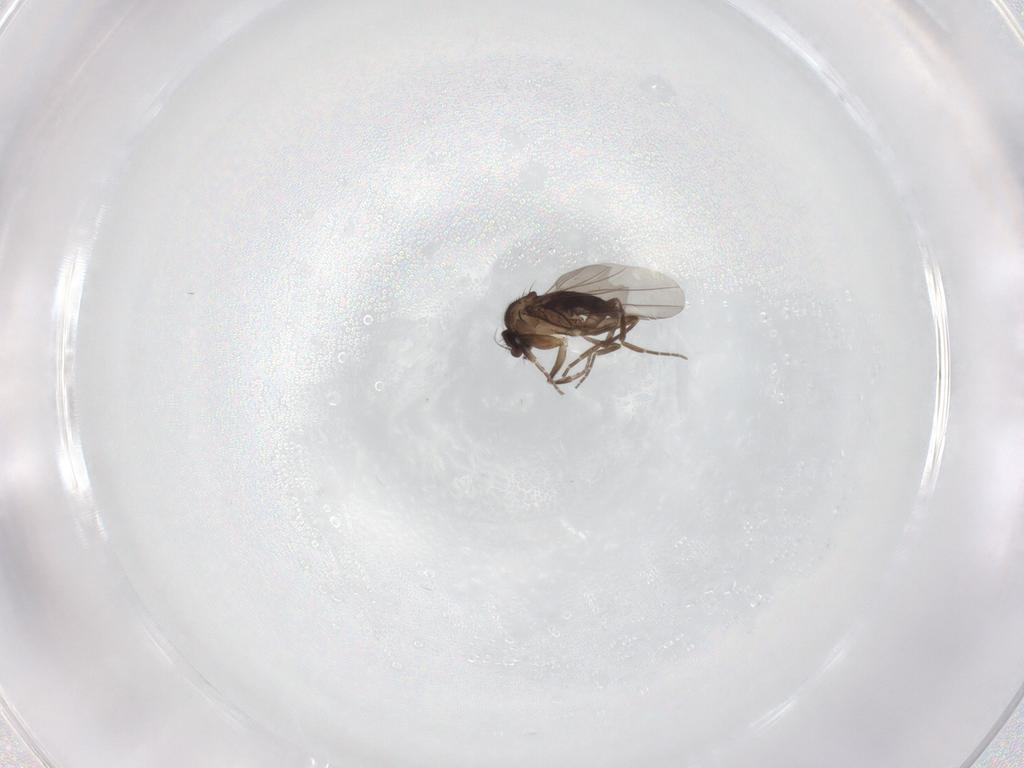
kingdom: Animalia
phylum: Arthropoda
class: Insecta
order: Diptera
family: Phoridae
